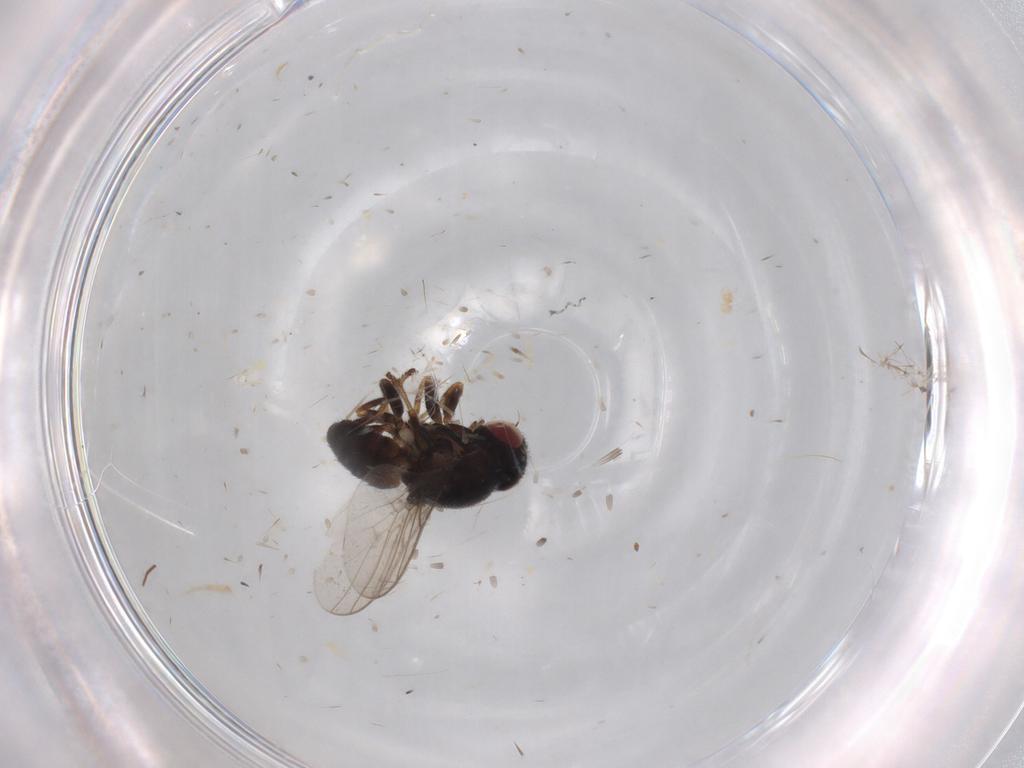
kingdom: Animalia
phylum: Arthropoda
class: Insecta
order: Diptera
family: Chloropidae
